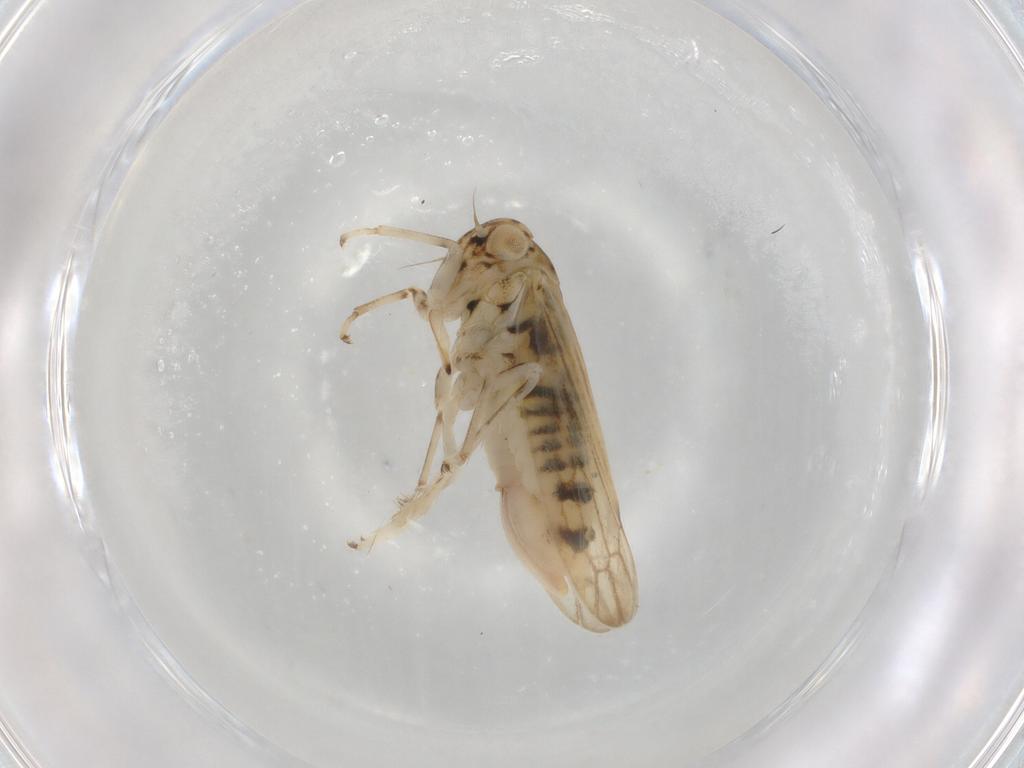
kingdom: Animalia
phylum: Arthropoda
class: Insecta
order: Hemiptera
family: Cicadellidae
